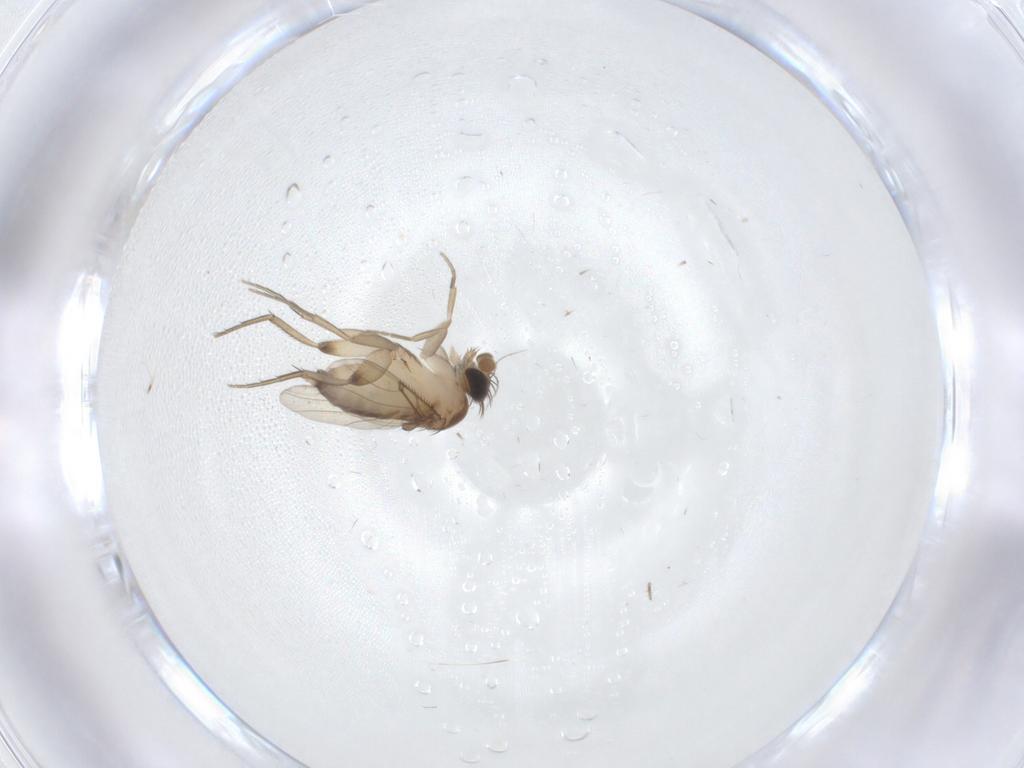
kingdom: Animalia
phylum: Arthropoda
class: Insecta
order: Diptera
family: Phoridae
